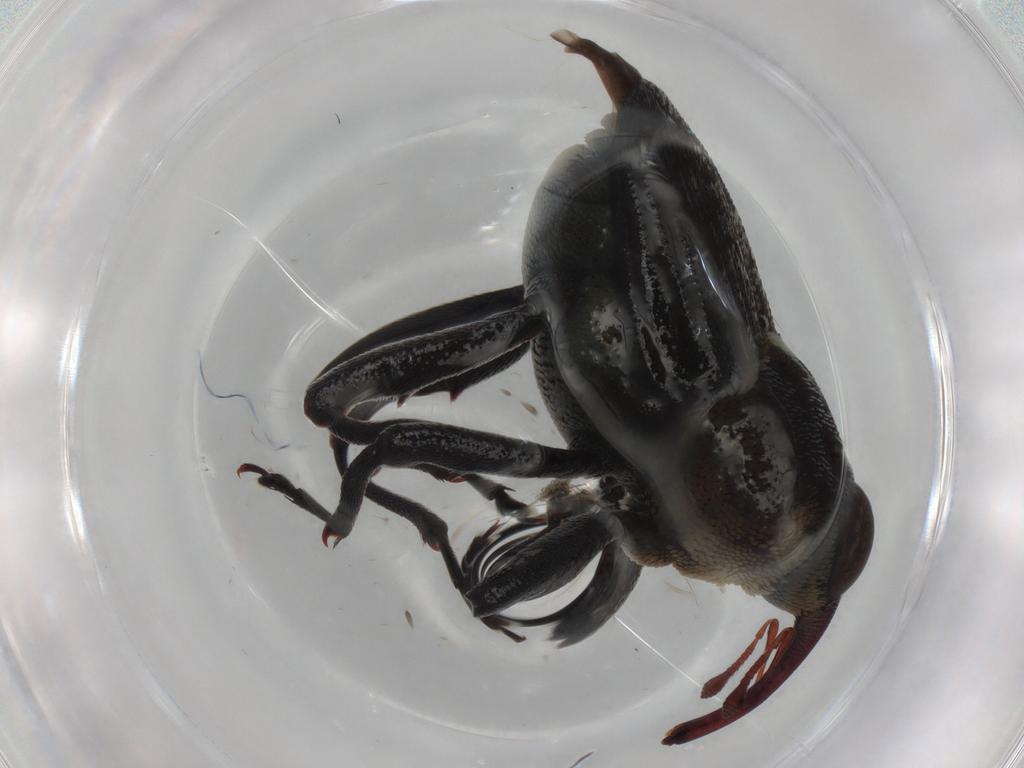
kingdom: Animalia
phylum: Arthropoda
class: Insecta
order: Coleoptera
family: Curculionidae
